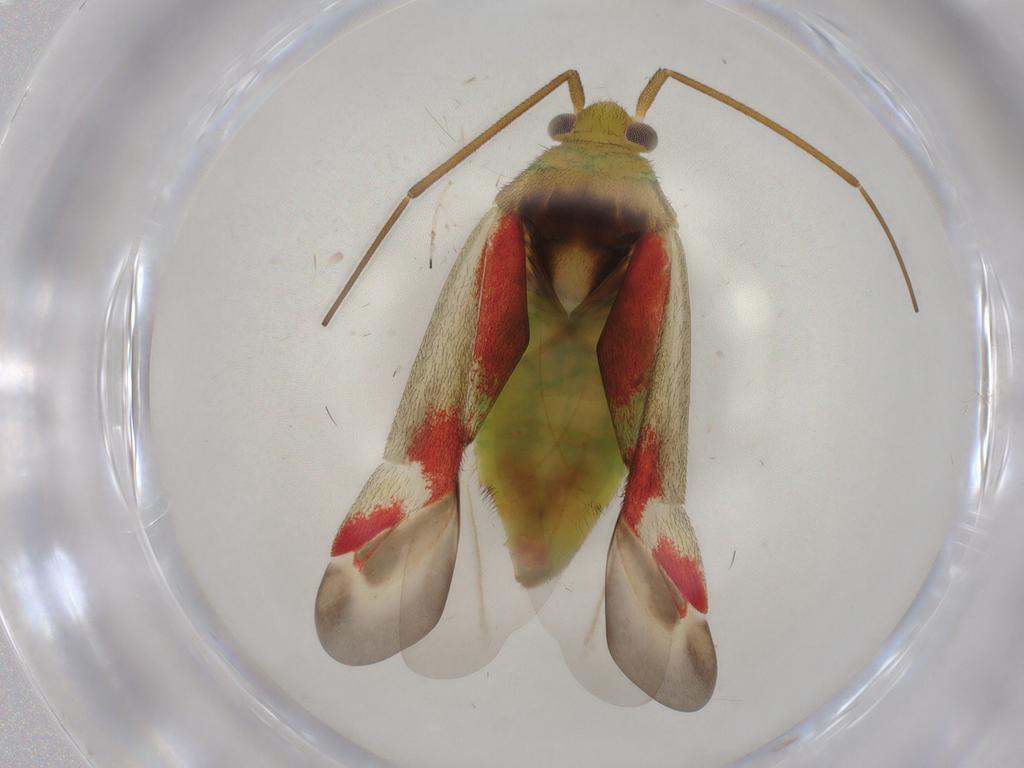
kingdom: Animalia
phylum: Arthropoda
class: Insecta
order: Hemiptera
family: Miridae
